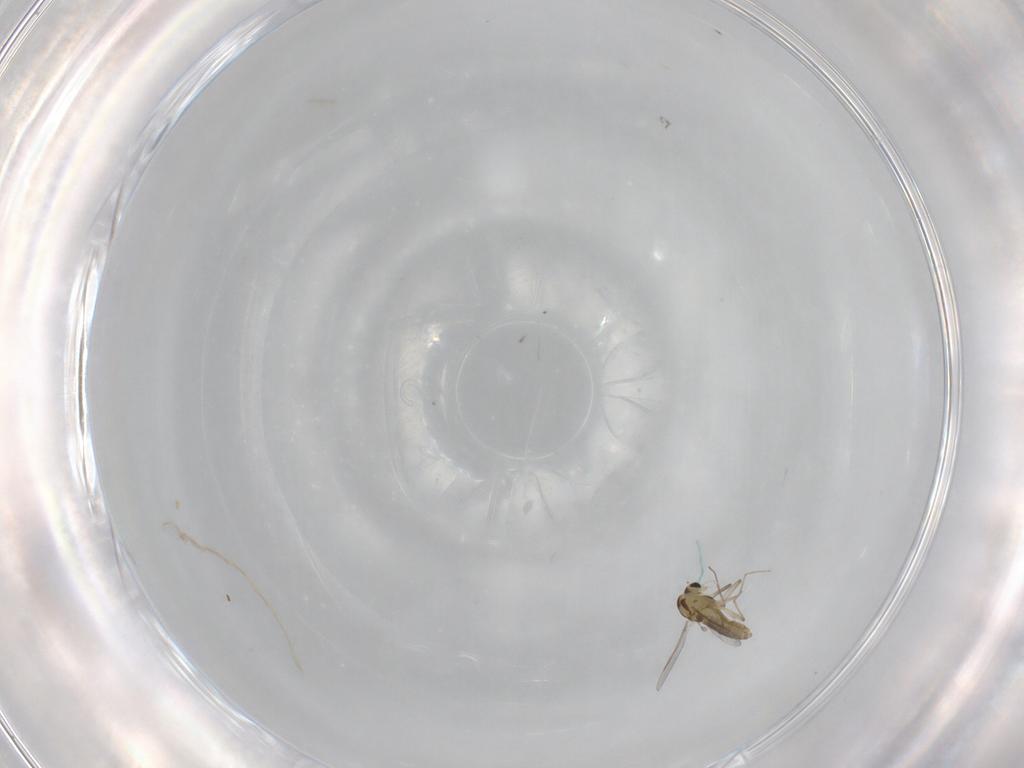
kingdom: Animalia
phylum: Arthropoda
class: Insecta
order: Diptera
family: Chironomidae
